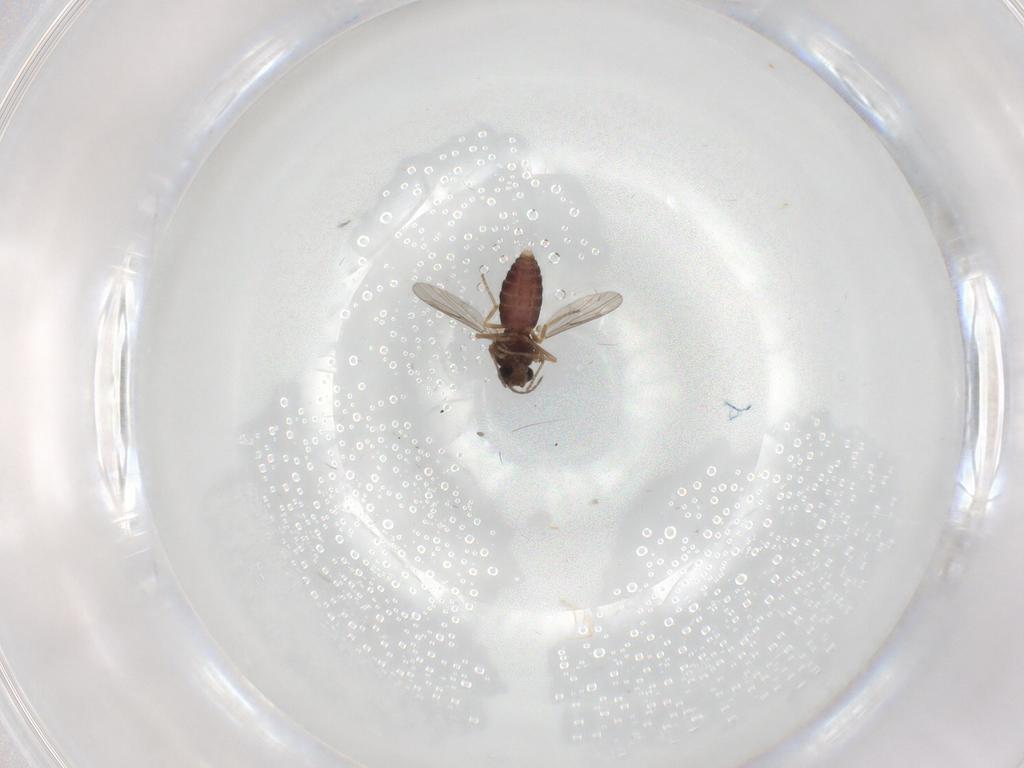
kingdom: Animalia
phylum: Arthropoda
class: Insecta
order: Diptera
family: Ceratopogonidae
